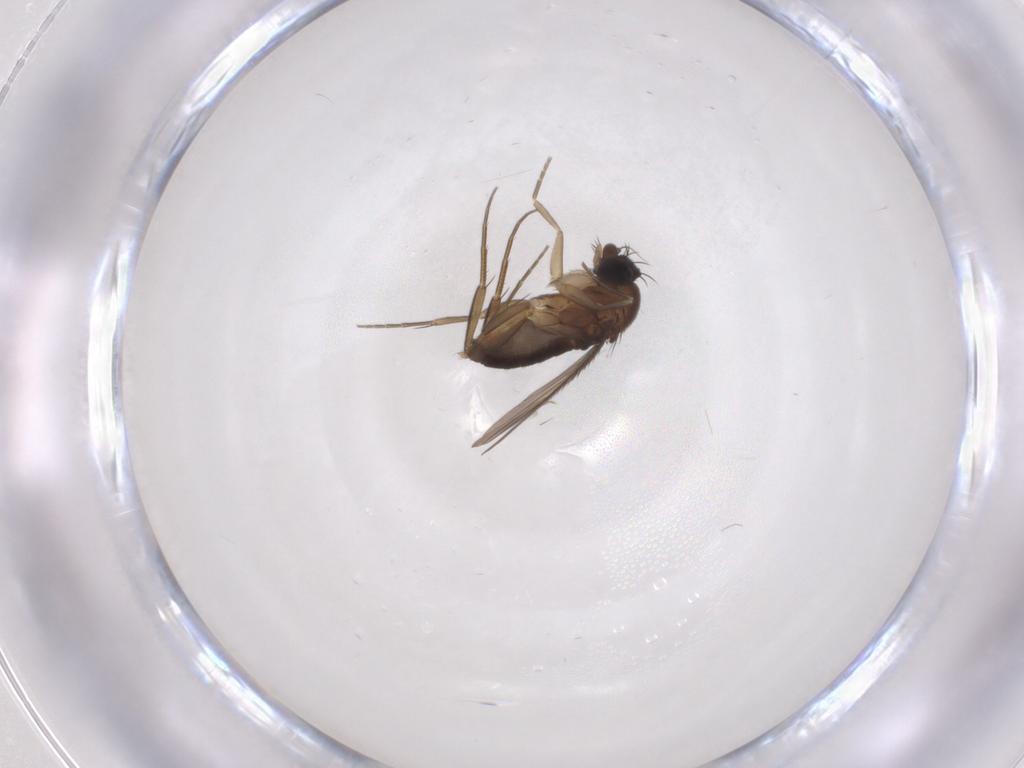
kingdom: Animalia
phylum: Arthropoda
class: Insecta
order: Diptera
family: Phoridae
